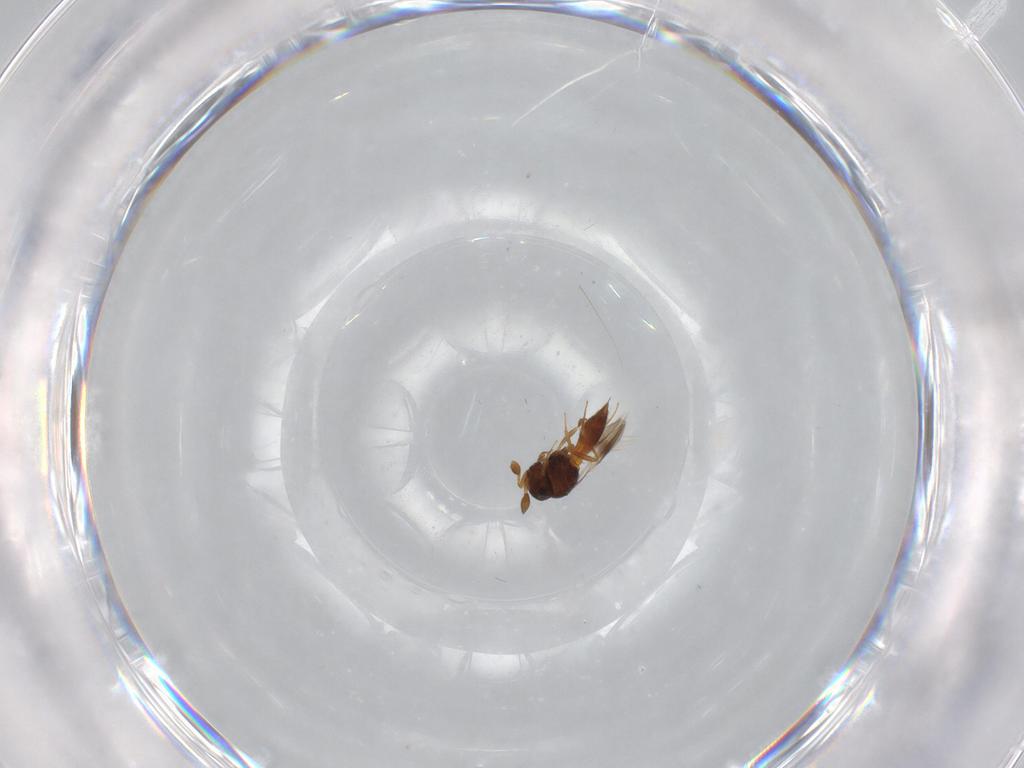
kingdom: Animalia
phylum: Arthropoda
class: Insecta
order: Hymenoptera
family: Scelionidae
